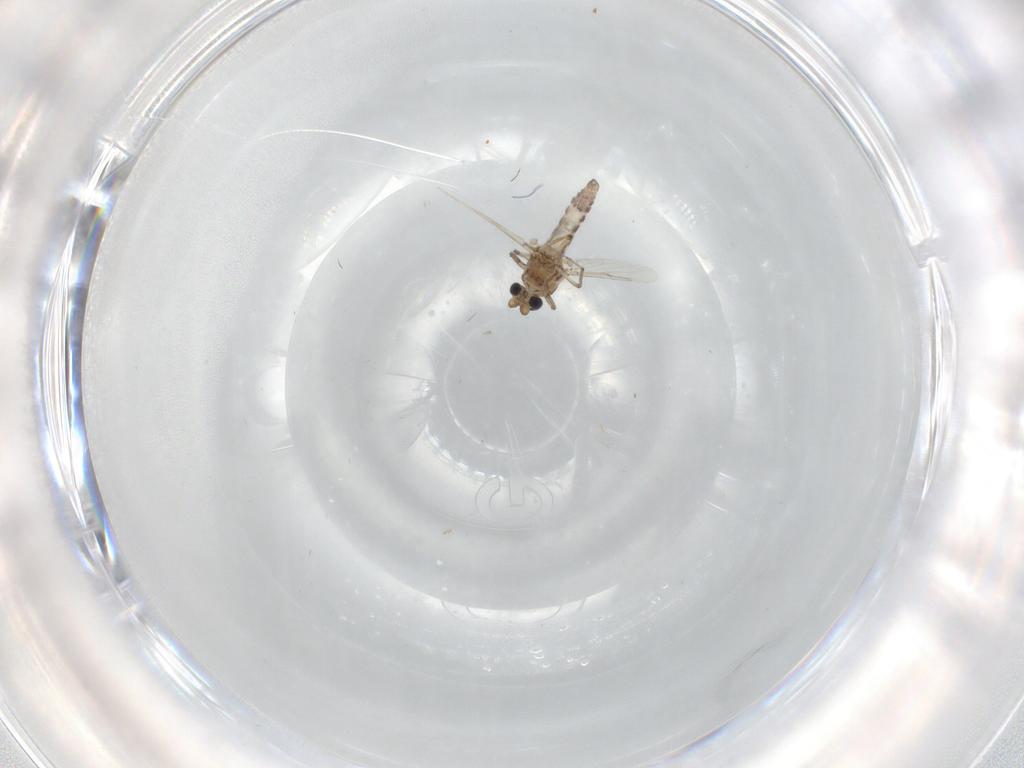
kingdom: Animalia
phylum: Arthropoda
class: Insecta
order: Diptera
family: Ceratopogonidae
